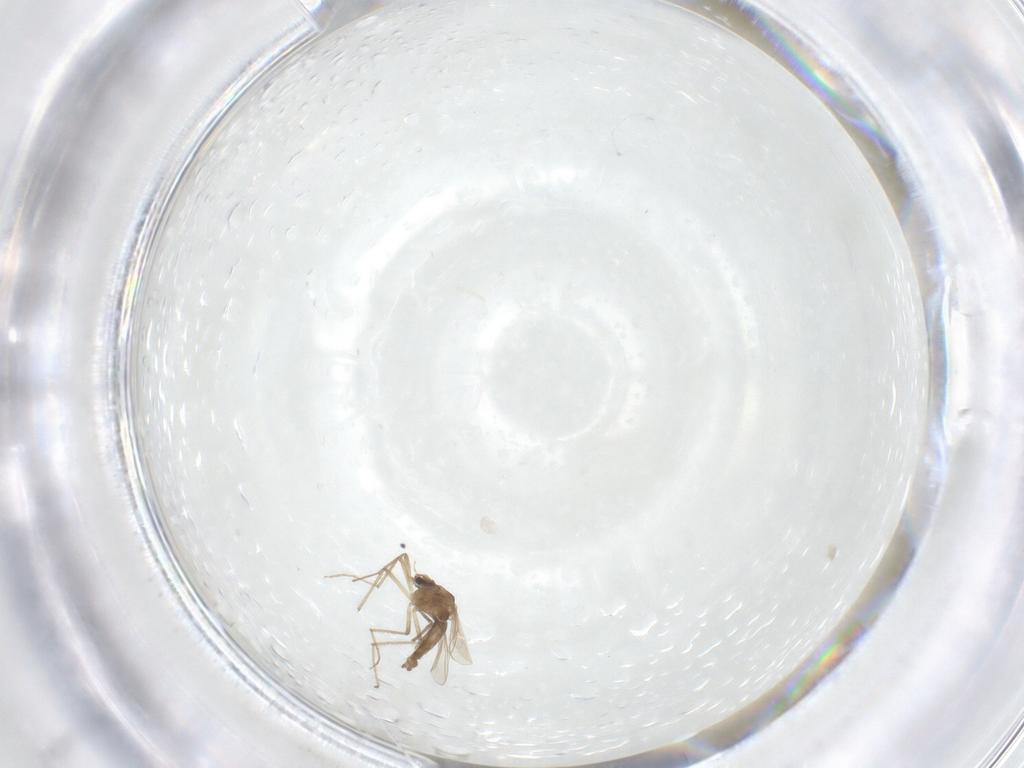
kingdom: Animalia
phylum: Arthropoda
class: Insecta
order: Diptera
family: Chironomidae
